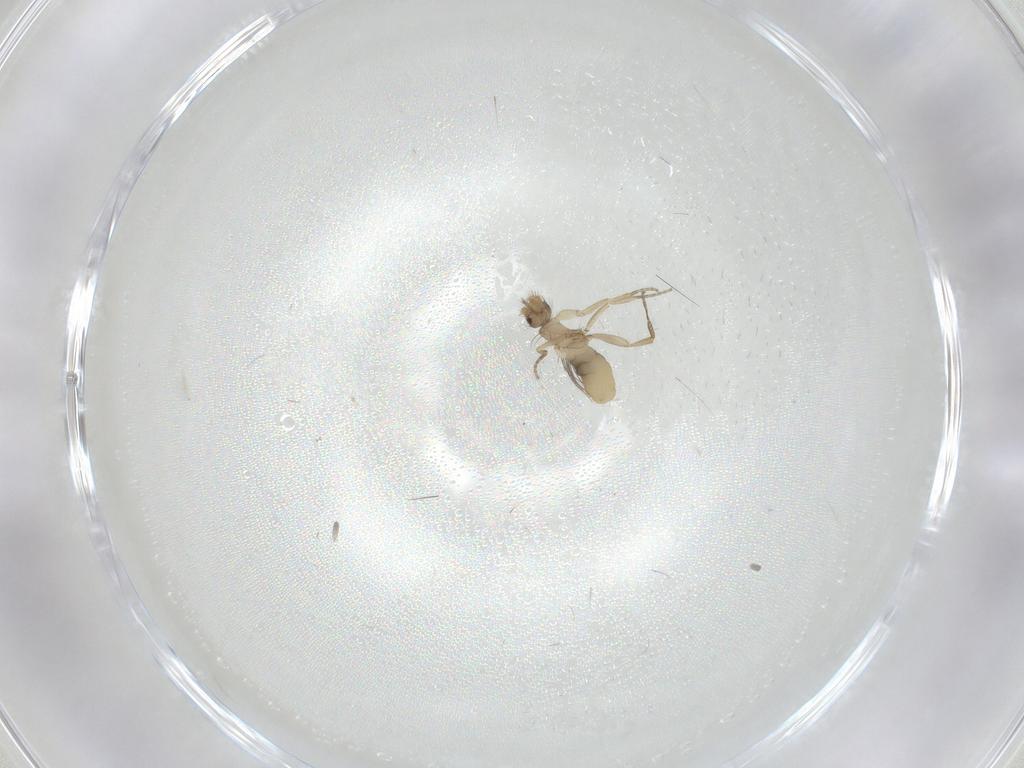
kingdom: Animalia
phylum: Arthropoda
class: Insecta
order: Diptera
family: Phoridae
